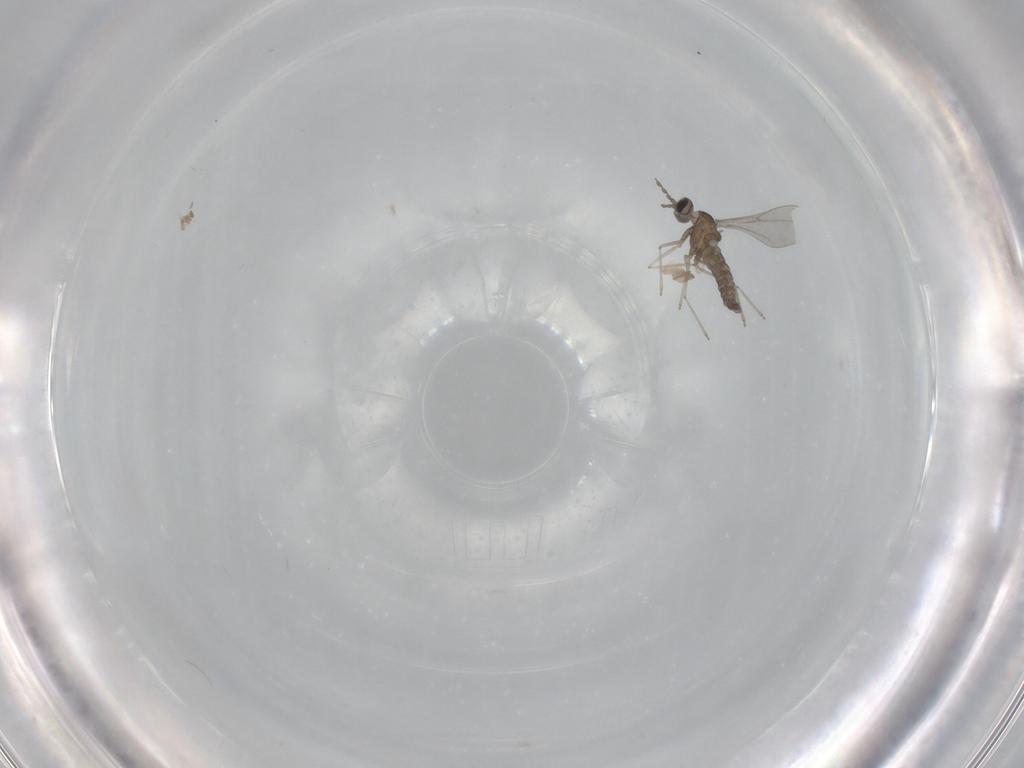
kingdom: Animalia
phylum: Arthropoda
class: Insecta
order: Diptera
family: Cecidomyiidae
